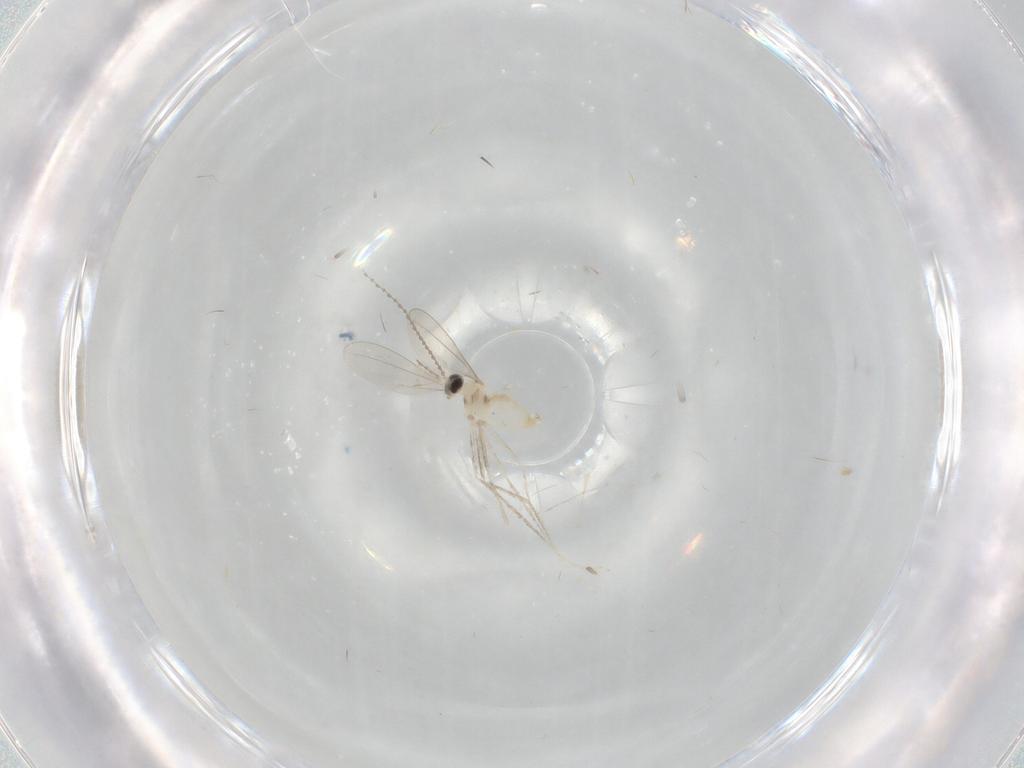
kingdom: Animalia
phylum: Arthropoda
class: Insecta
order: Diptera
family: Cecidomyiidae
